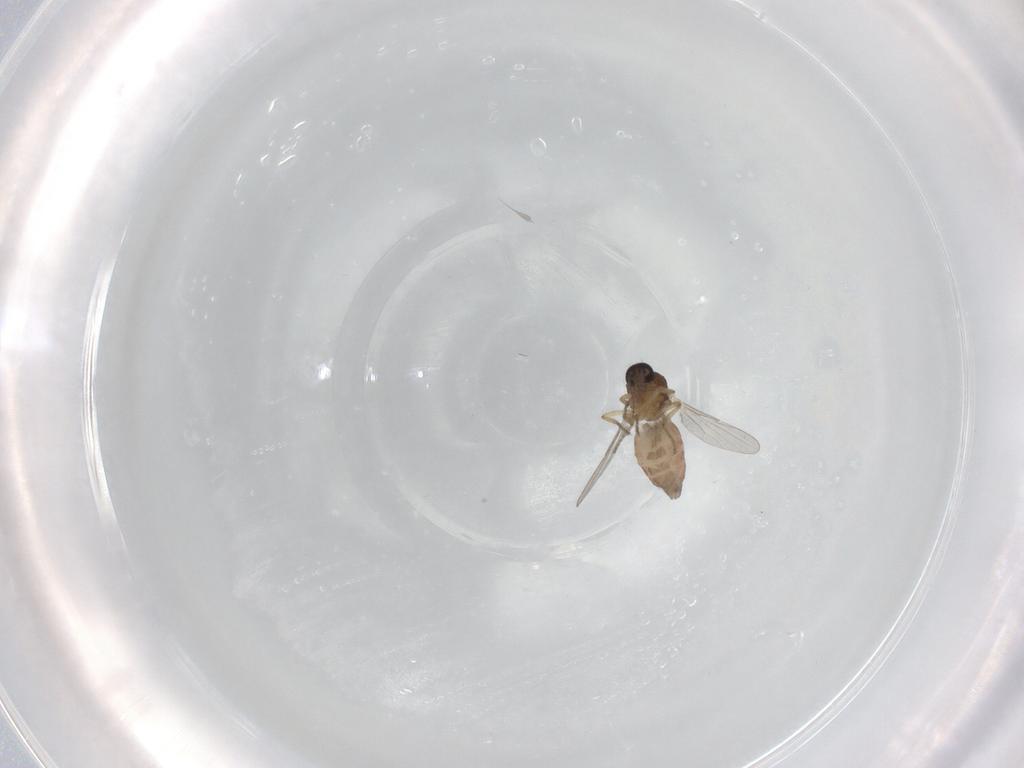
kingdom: Animalia
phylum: Arthropoda
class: Insecta
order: Diptera
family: Ceratopogonidae
